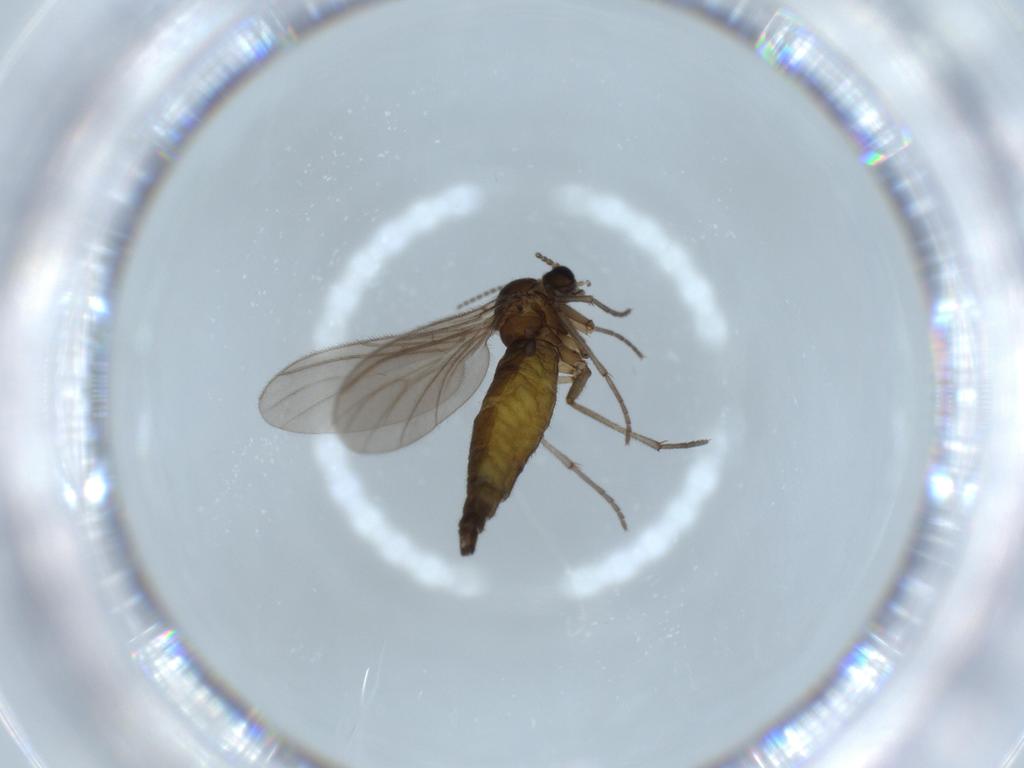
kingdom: Animalia
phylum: Arthropoda
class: Insecta
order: Diptera
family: Sciaridae
